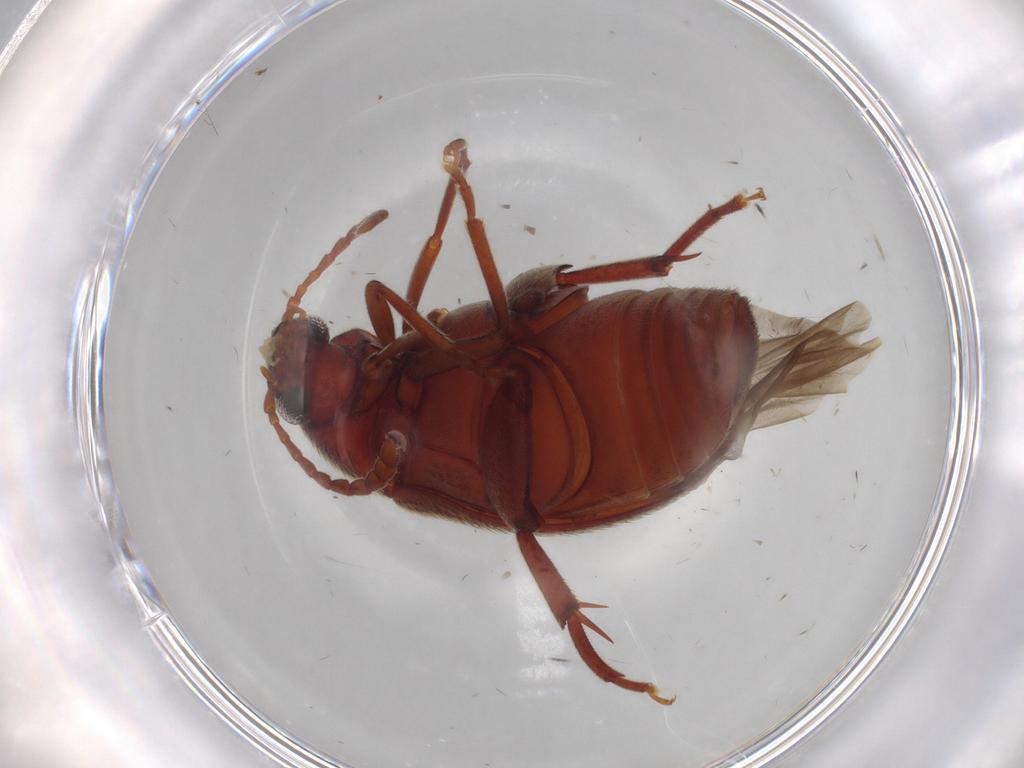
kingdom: Animalia
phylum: Arthropoda
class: Insecta
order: Coleoptera
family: Chrysomelidae
